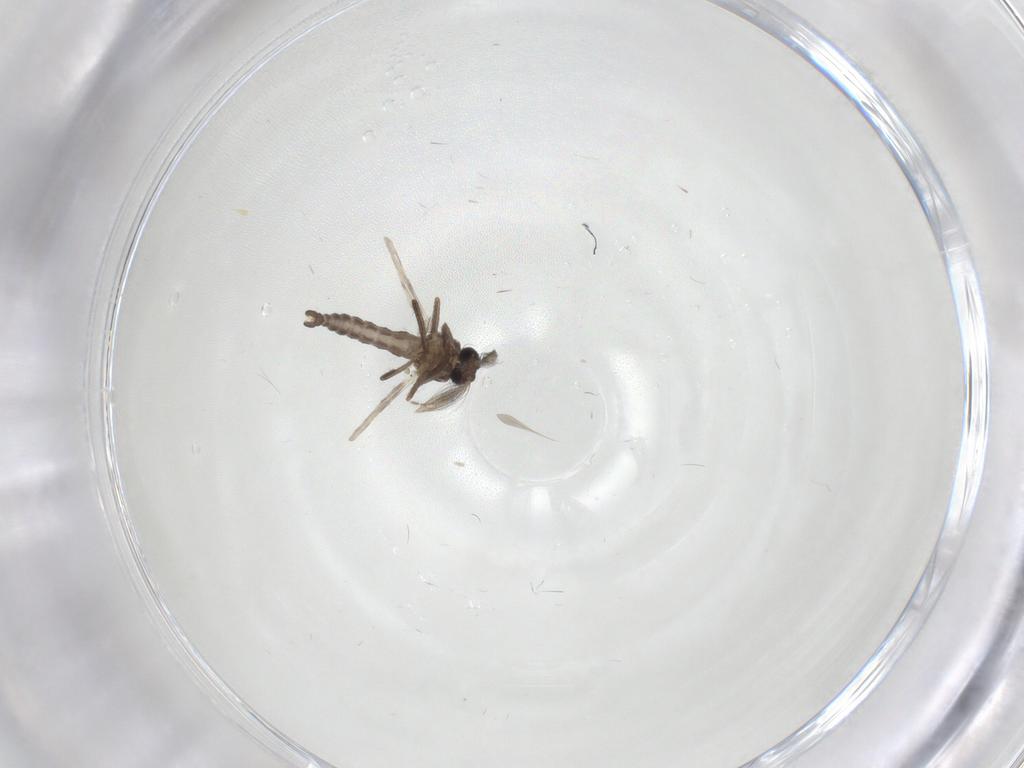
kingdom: Animalia
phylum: Arthropoda
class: Insecta
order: Diptera
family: Ceratopogonidae
